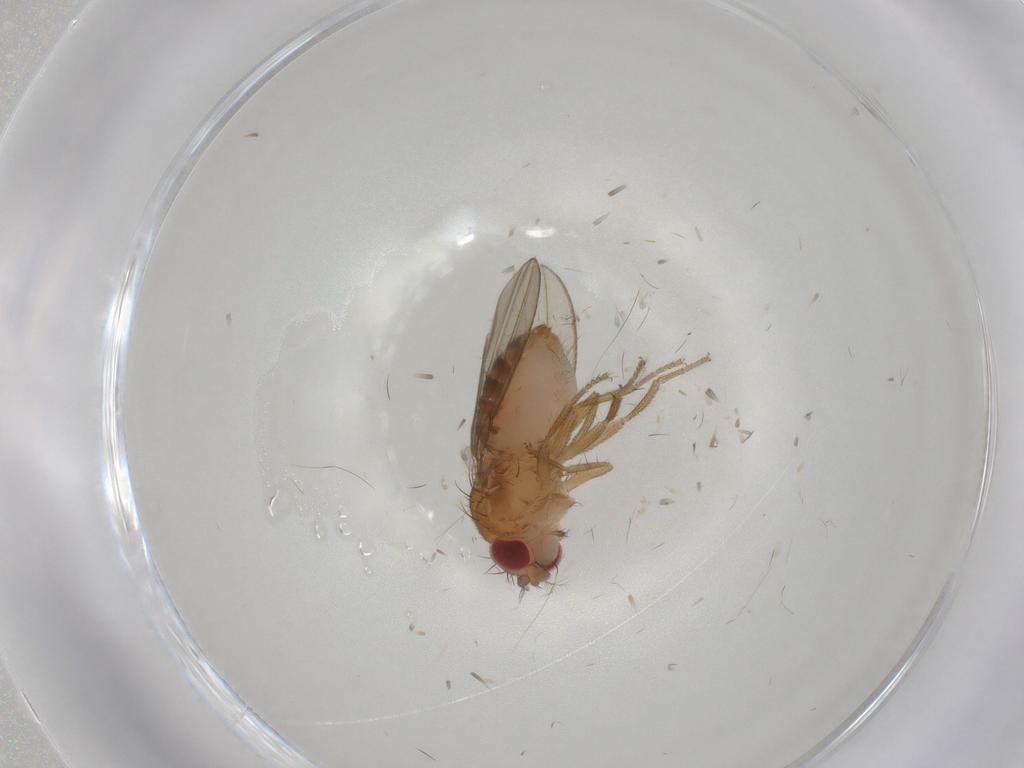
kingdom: Animalia
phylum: Arthropoda
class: Insecta
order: Diptera
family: Drosophilidae
